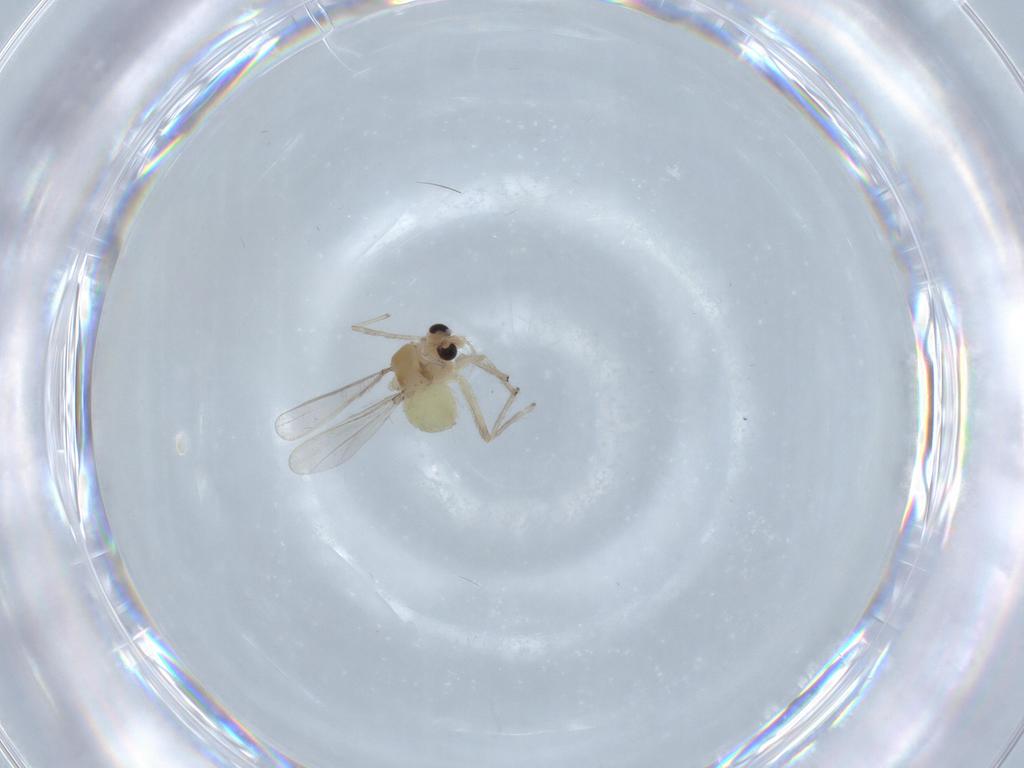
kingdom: Animalia
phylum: Arthropoda
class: Insecta
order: Diptera
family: Chironomidae
